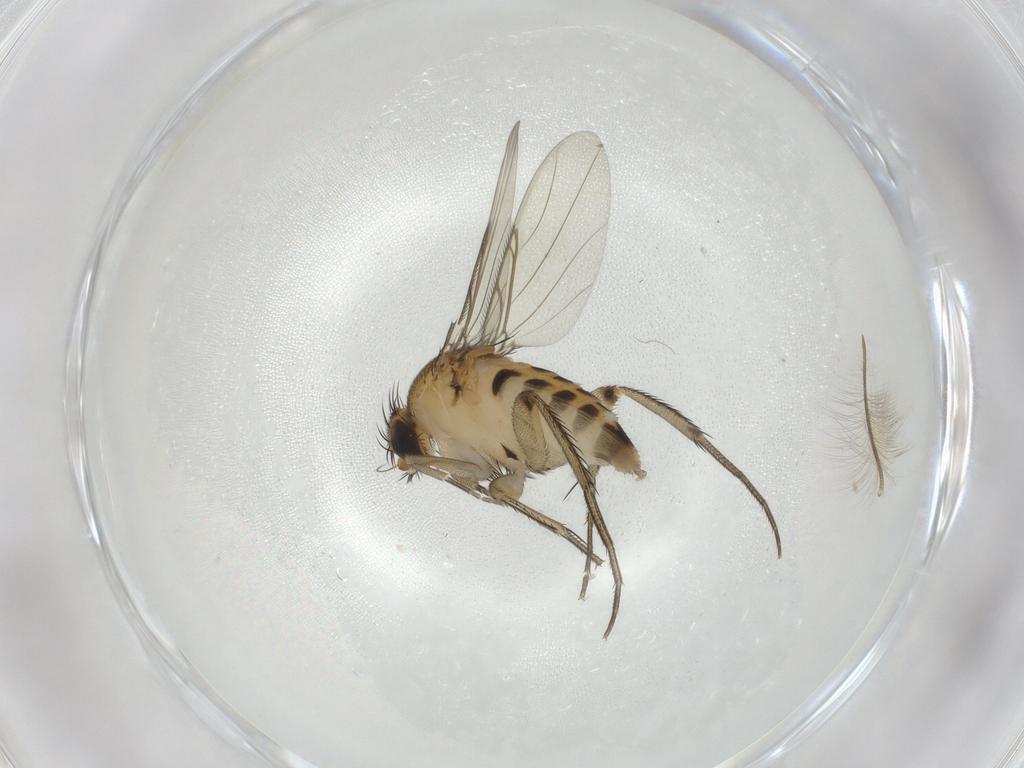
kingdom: Animalia
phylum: Arthropoda
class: Insecta
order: Diptera
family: Phoridae
